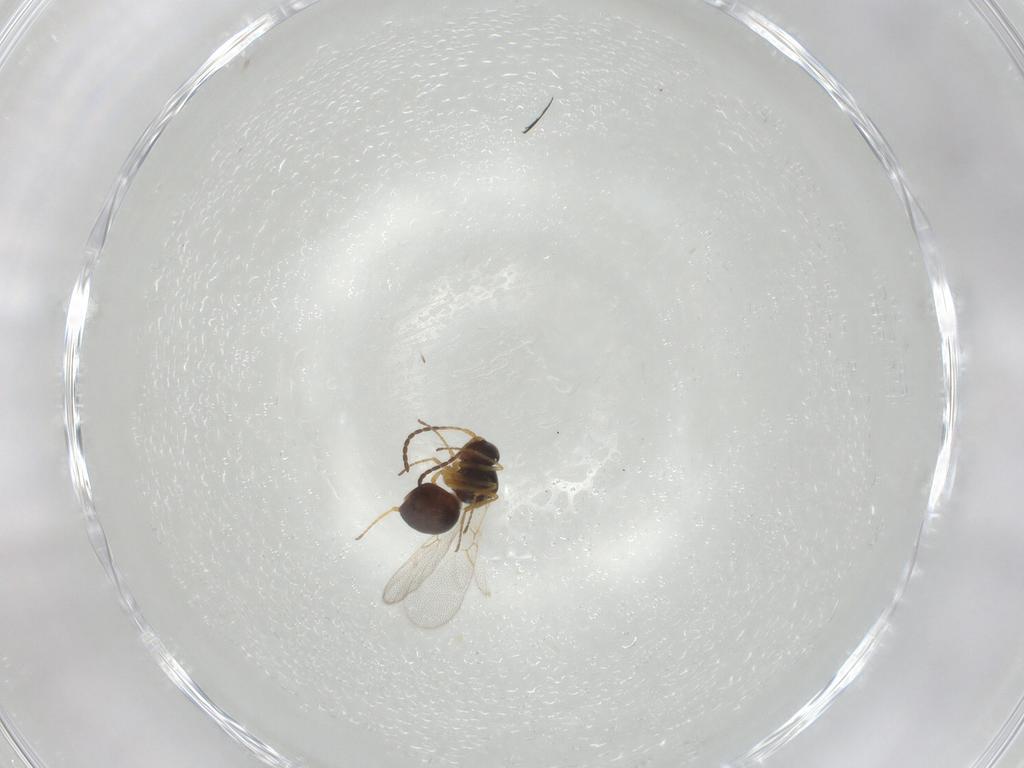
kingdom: Animalia
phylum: Arthropoda
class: Insecta
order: Hymenoptera
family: Figitidae
